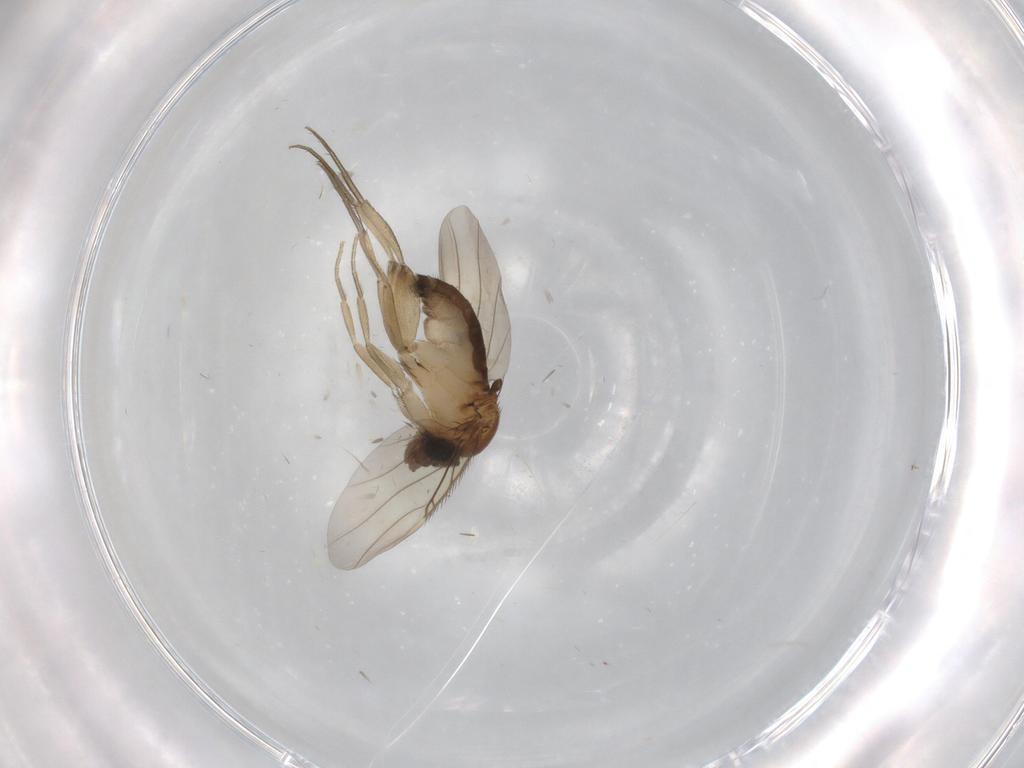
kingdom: Animalia
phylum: Arthropoda
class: Insecta
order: Diptera
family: Phoridae
